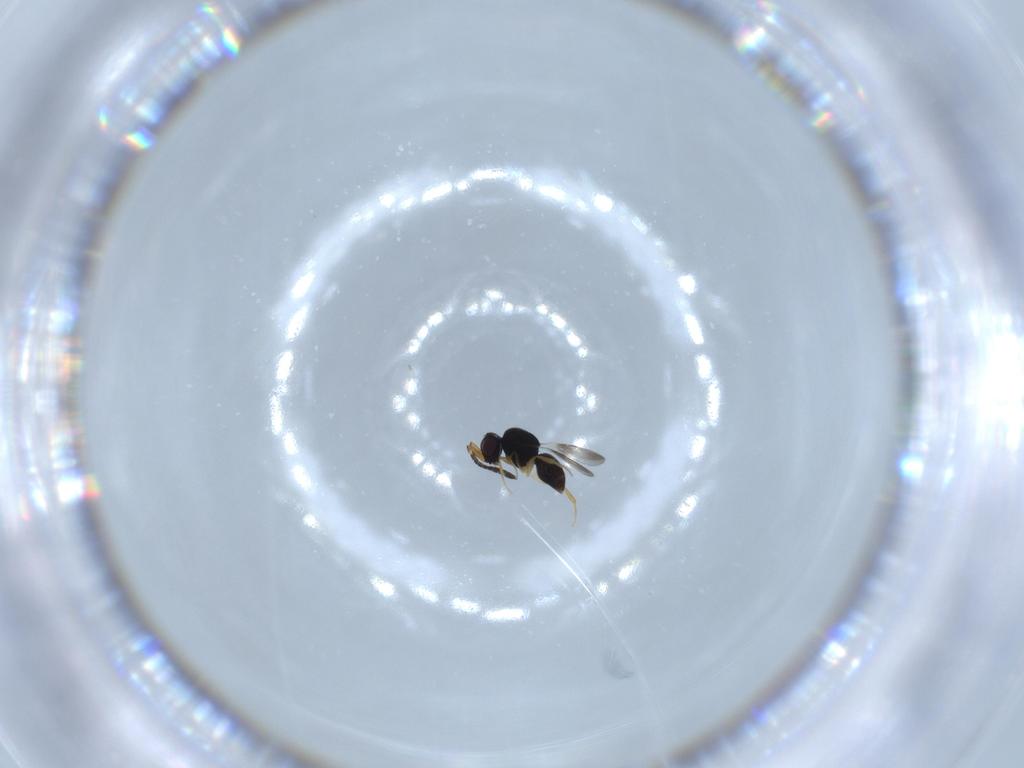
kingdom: Animalia
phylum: Arthropoda
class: Insecta
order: Hymenoptera
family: Ceraphronidae
